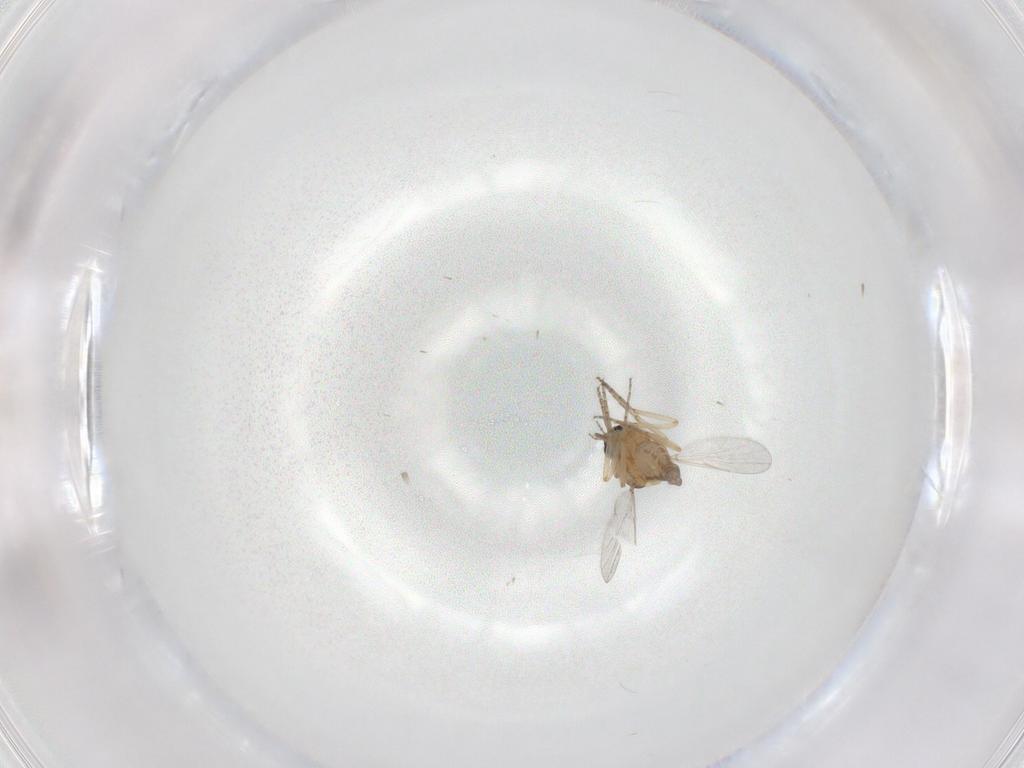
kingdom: Animalia
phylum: Arthropoda
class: Insecta
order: Diptera
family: Ceratopogonidae
